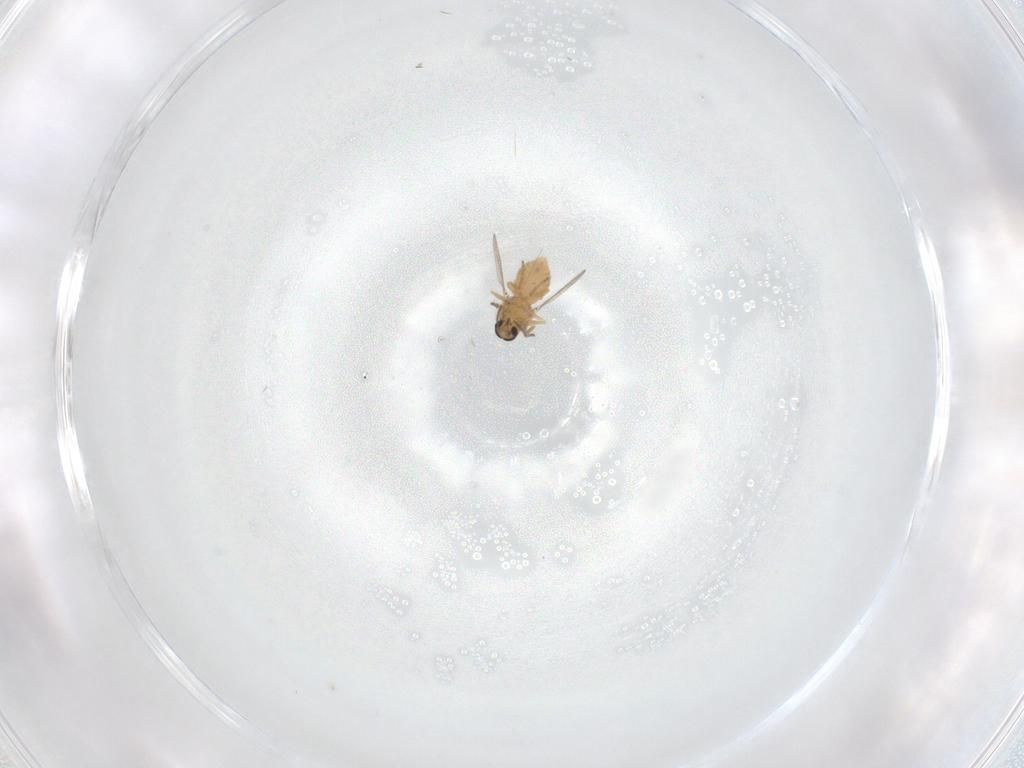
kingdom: Animalia
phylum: Arthropoda
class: Insecta
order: Diptera
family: Ceratopogonidae
